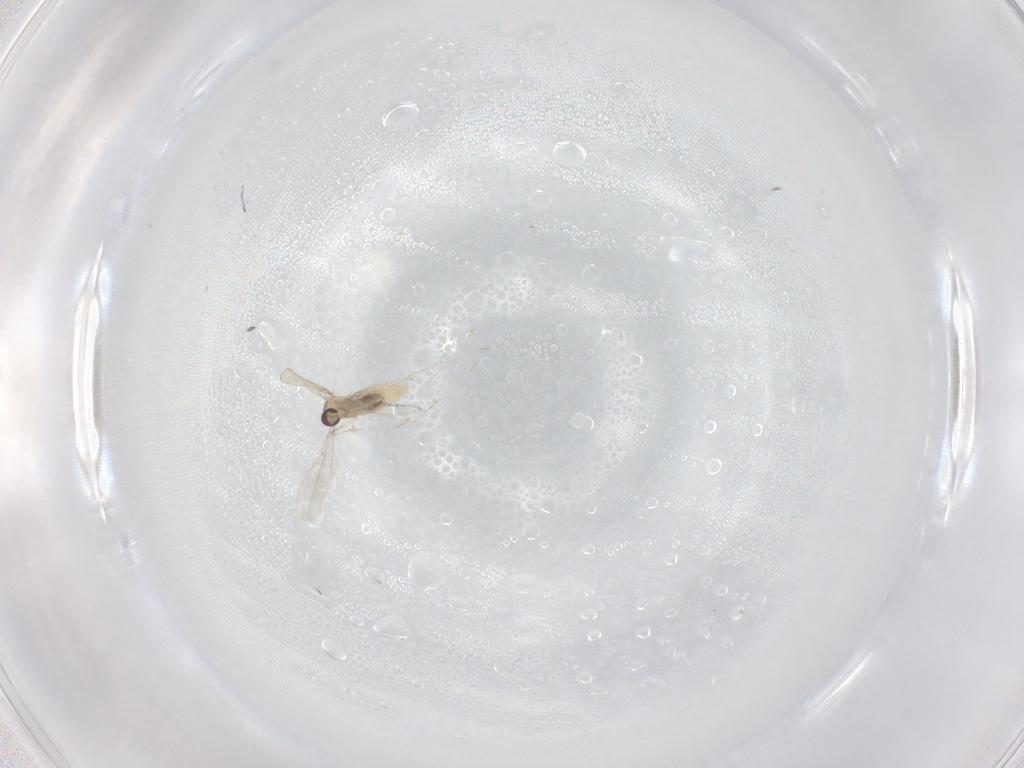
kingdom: Animalia
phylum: Arthropoda
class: Insecta
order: Diptera
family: Cecidomyiidae
